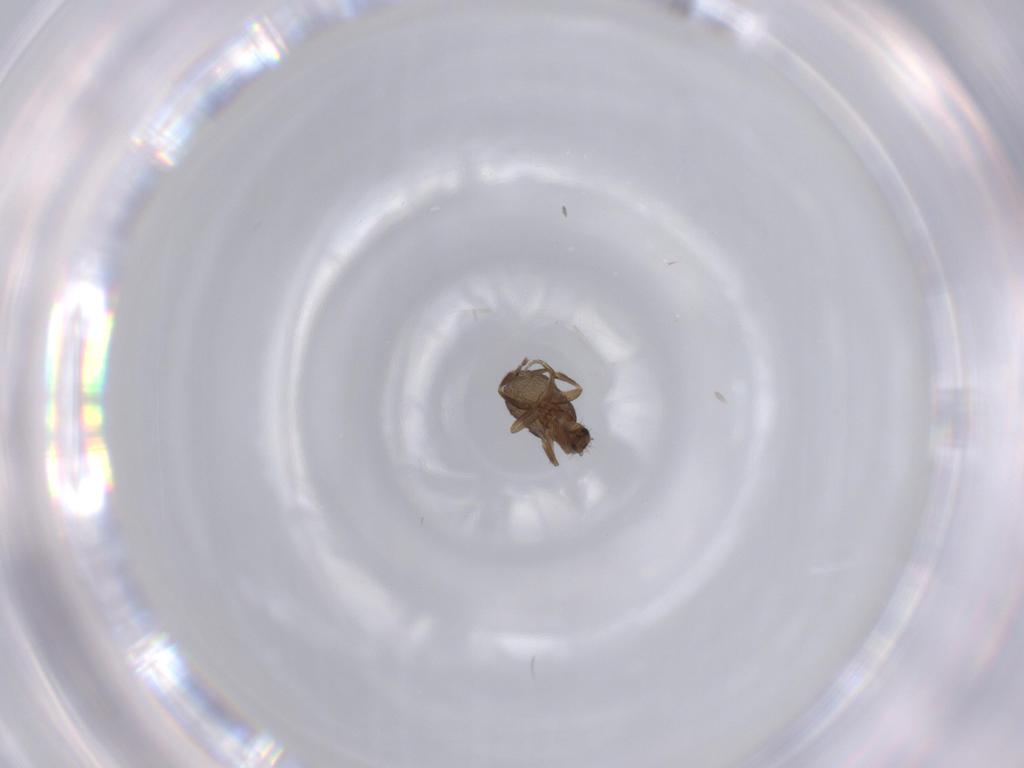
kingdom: Animalia
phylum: Arthropoda
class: Insecta
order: Diptera
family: Phoridae
